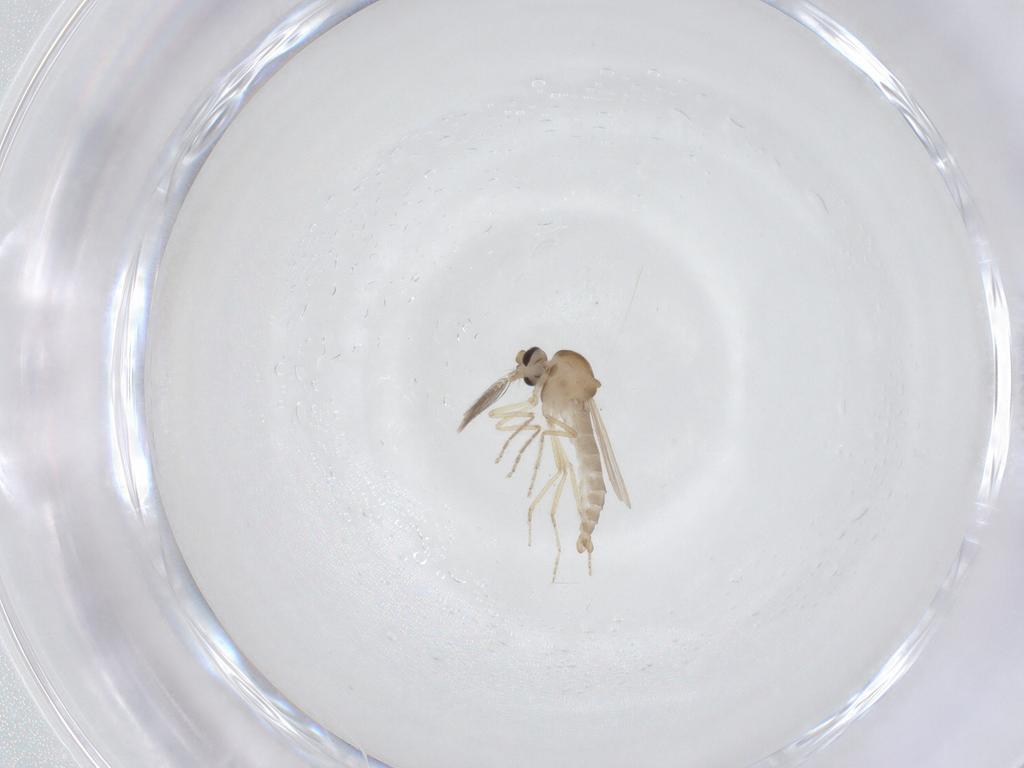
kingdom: Animalia
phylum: Arthropoda
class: Insecta
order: Diptera
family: Ceratopogonidae
